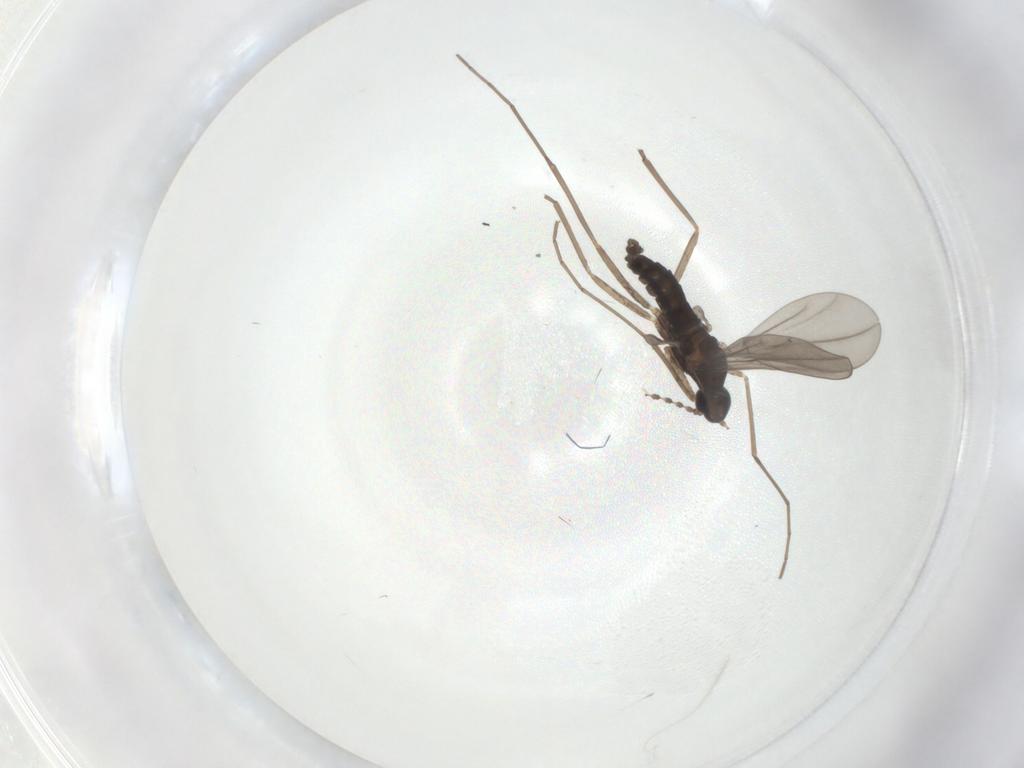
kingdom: Animalia
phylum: Arthropoda
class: Insecta
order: Diptera
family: Cecidomyiidae
